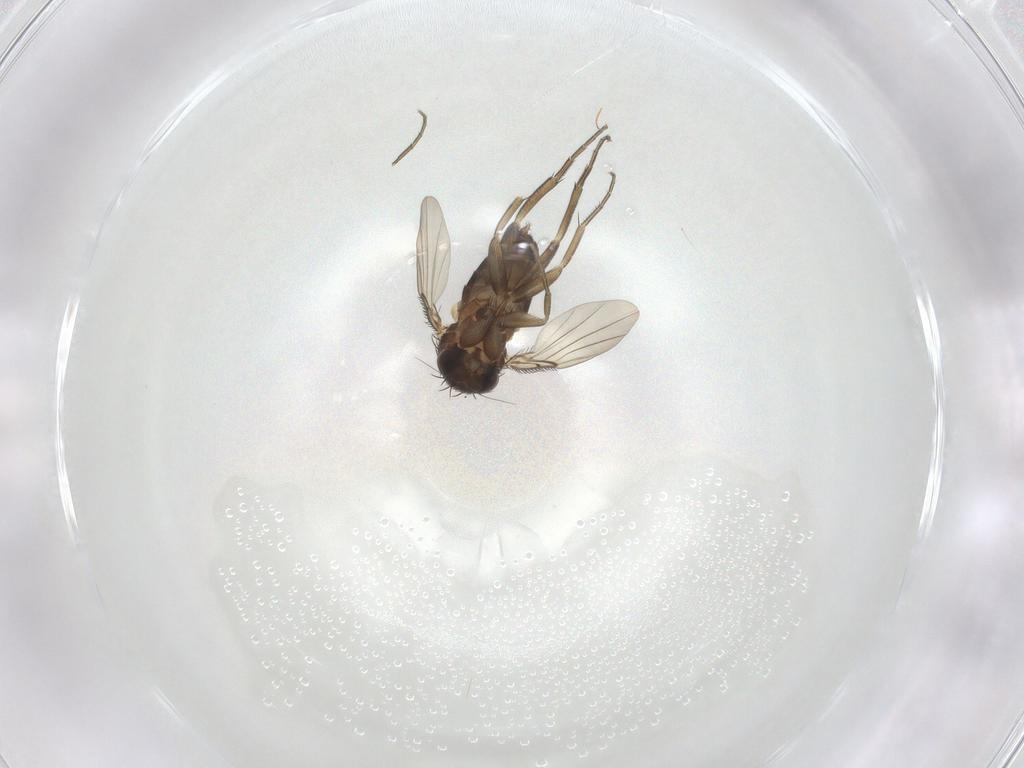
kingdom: Animalia
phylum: Arthropoda
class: Insecta
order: Diptera
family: Phoridae
